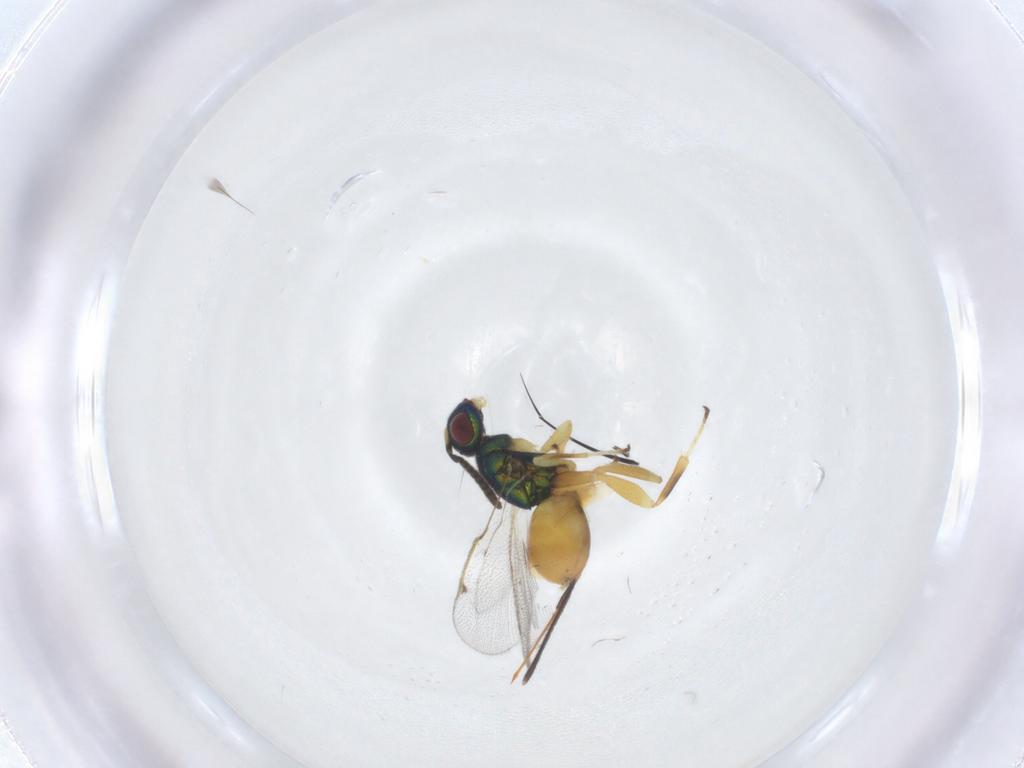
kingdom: Animalia
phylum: Arthropoda
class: Insecta
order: Hymenoptera
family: Torymidae
